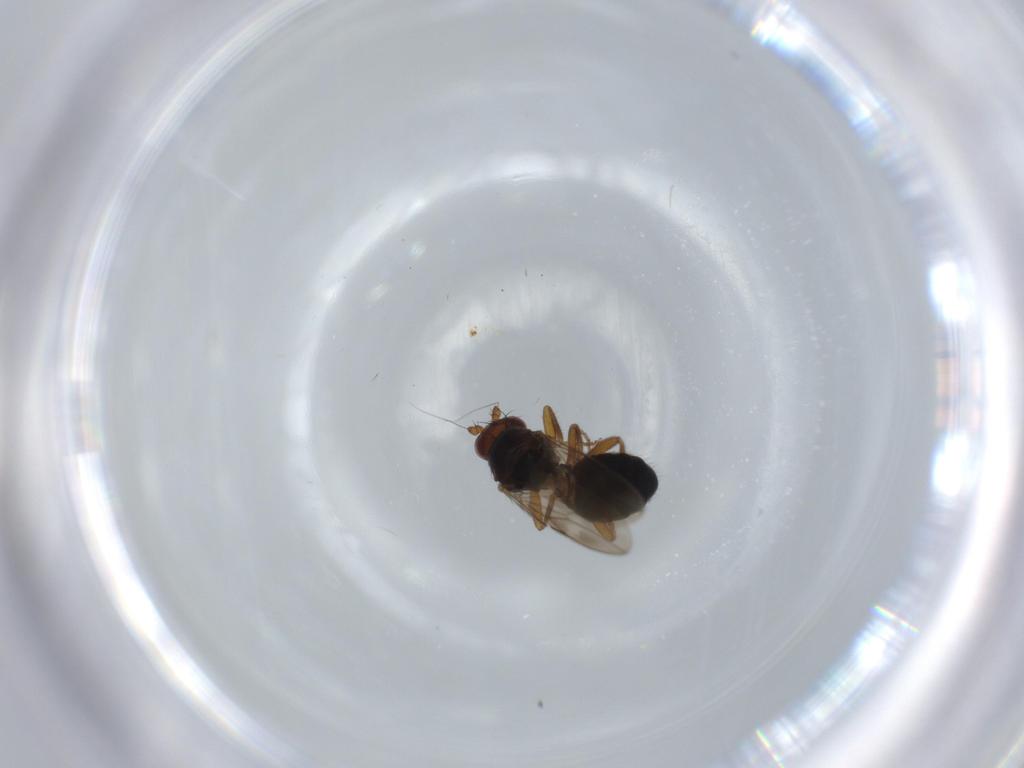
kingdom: Animalia
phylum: Arthropoda
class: Insecta
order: Diptera
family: Sphaeroceridae
